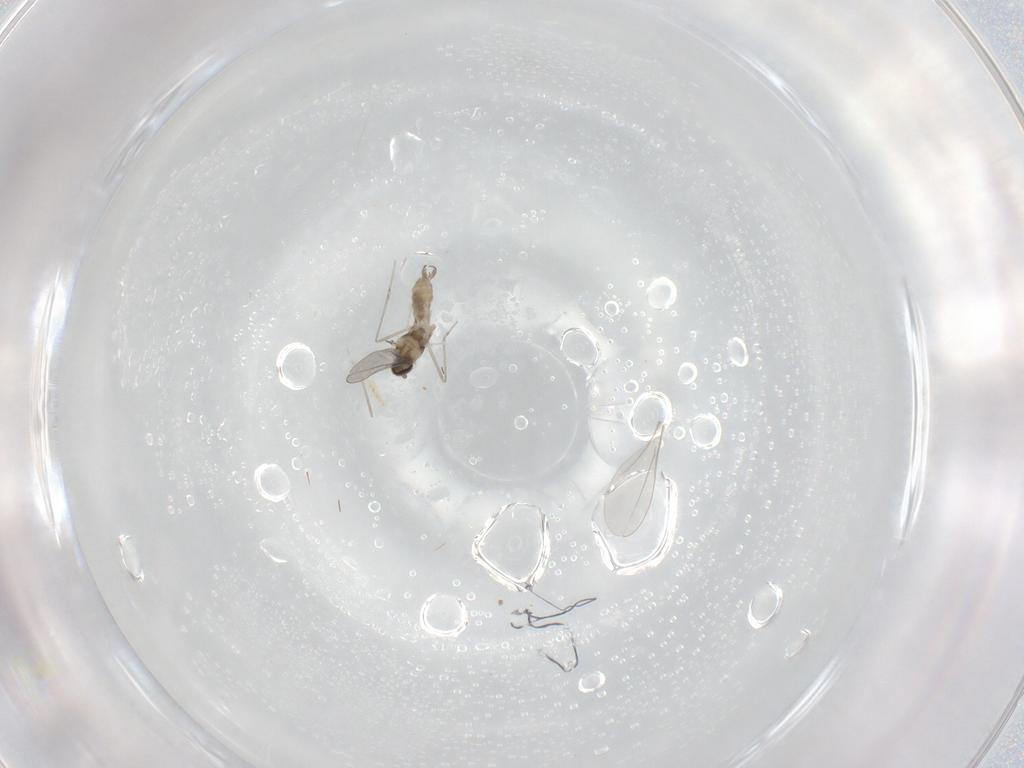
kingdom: Animalia
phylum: Arthropoda
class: Insecta
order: Diptera
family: Cecidomyiidae
